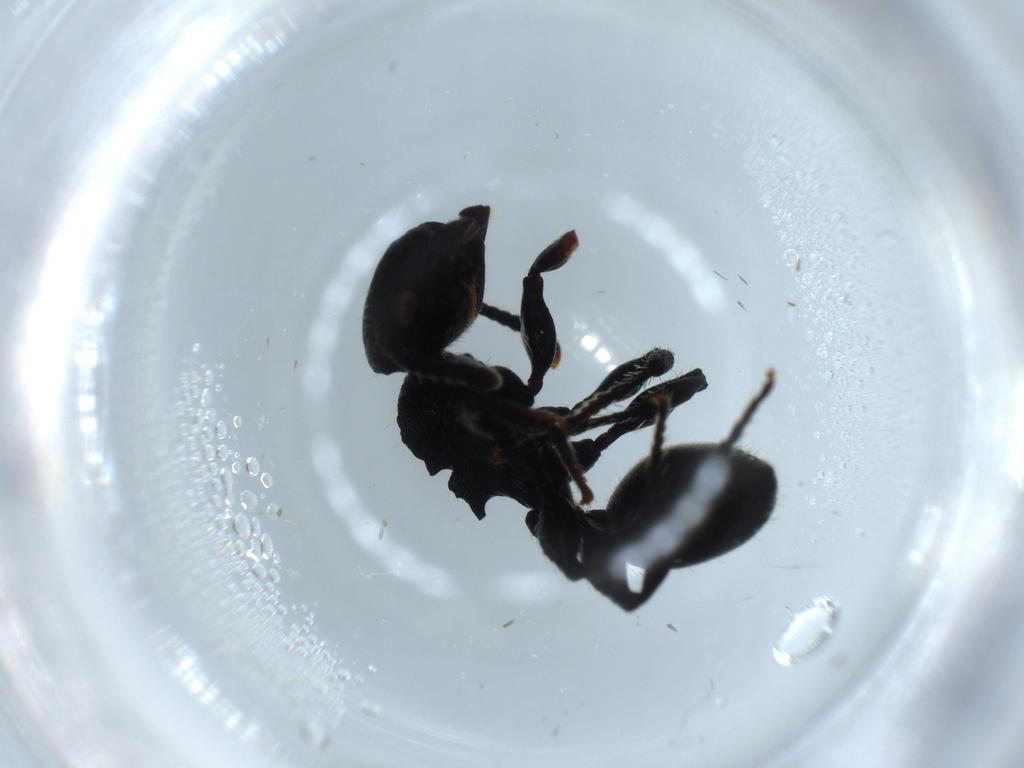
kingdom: Animalia
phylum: Arthropoda
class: Insecta
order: Hymenoptera
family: Formicidae
